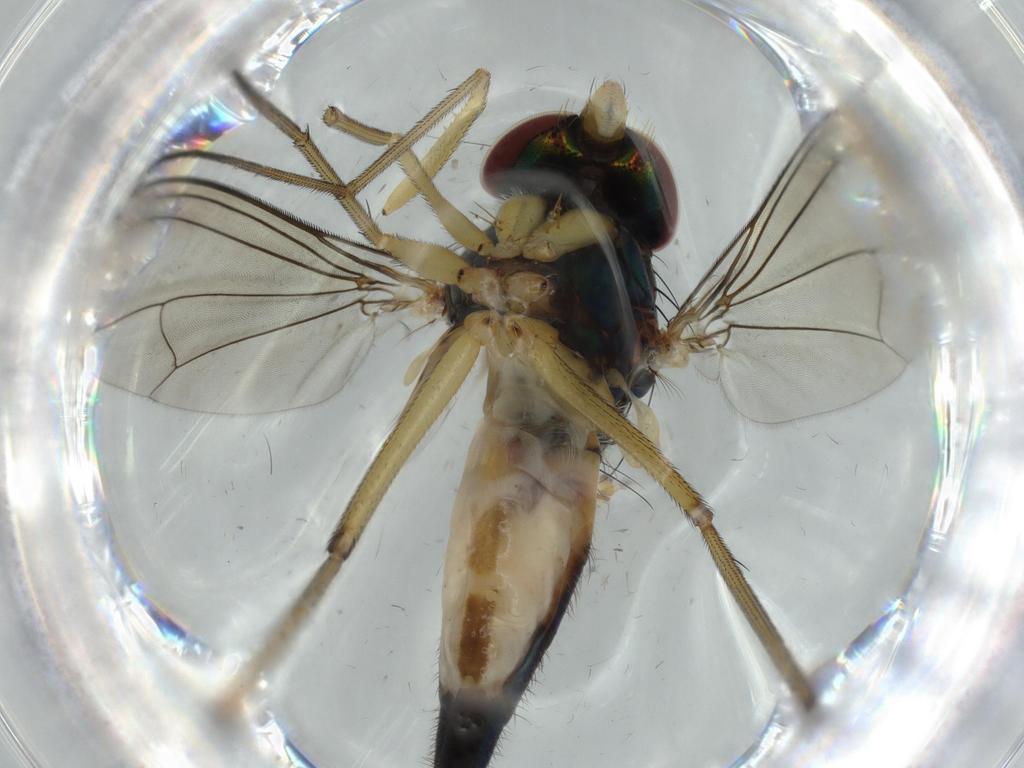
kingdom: Animalia
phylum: Arthropoda
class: Insecta
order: Diptera
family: Dolichopodidae
